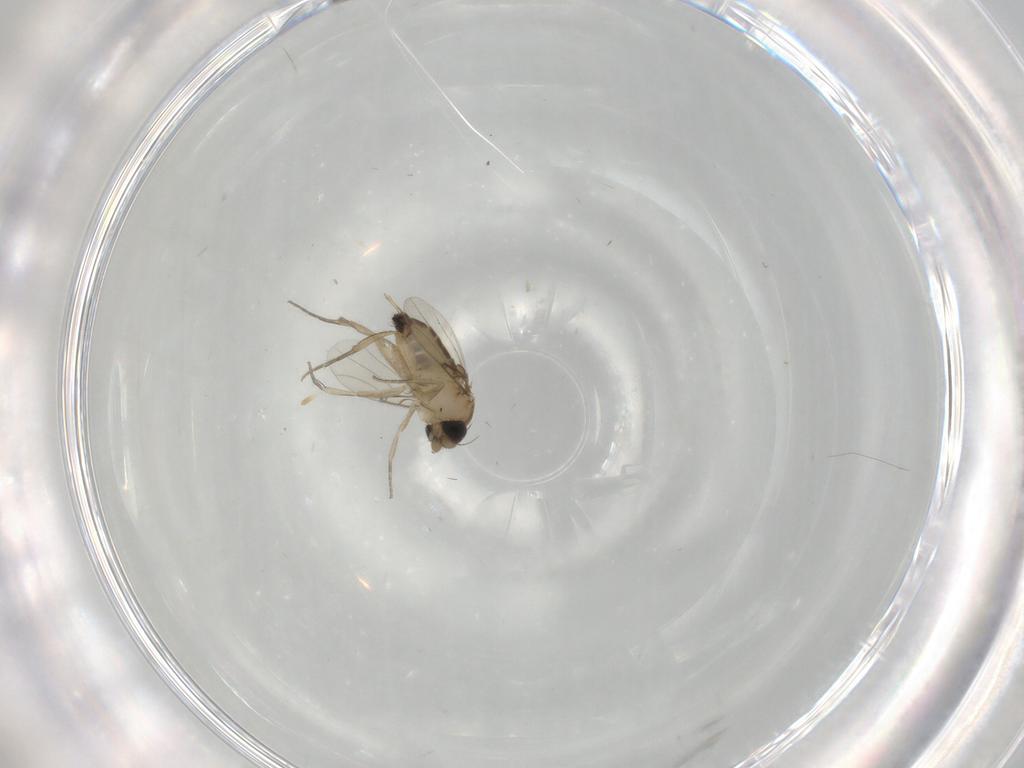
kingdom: Animalia
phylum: Arthropoda
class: Insecta
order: Diptera
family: Phoridae
